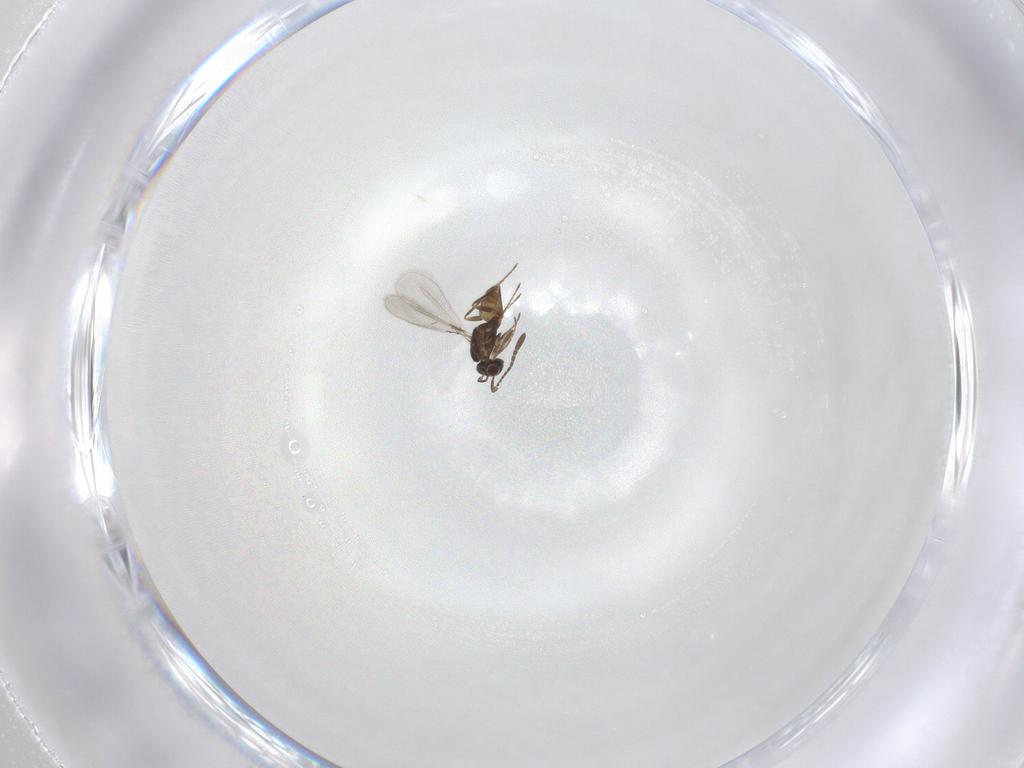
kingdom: Animalia
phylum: Arthropoda
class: Insecta
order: Hymenoptera
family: Mymaridae
